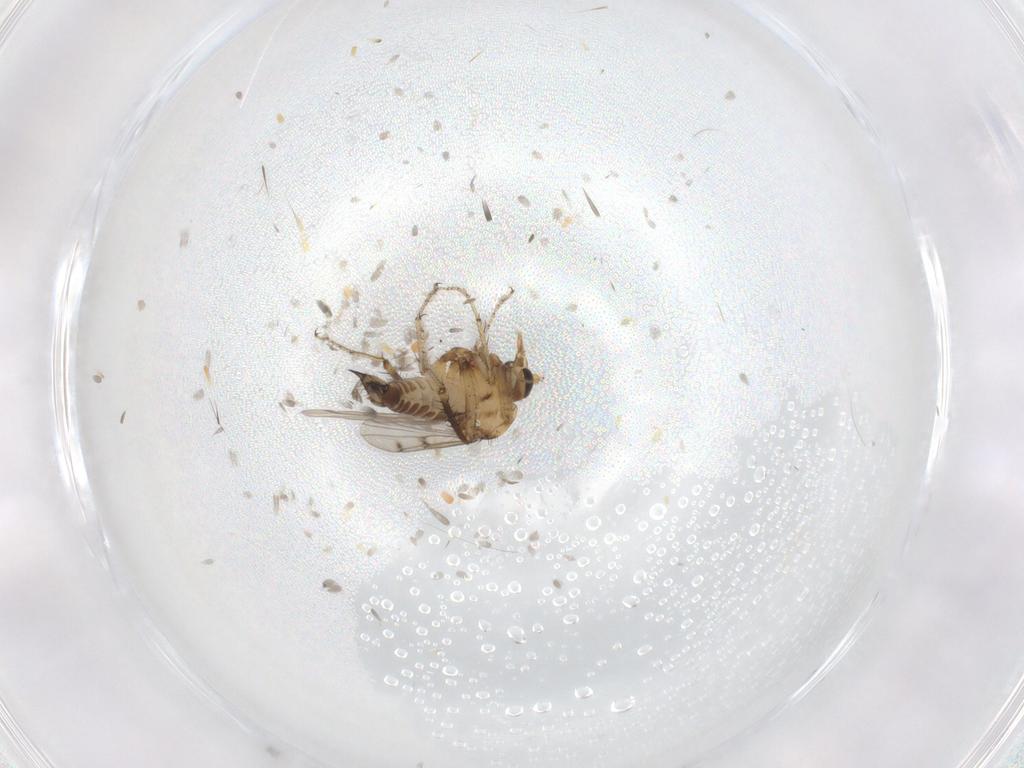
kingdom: Animalia
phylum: Arthropoda
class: Insecta
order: Diptera
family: Ceratopogonidae
